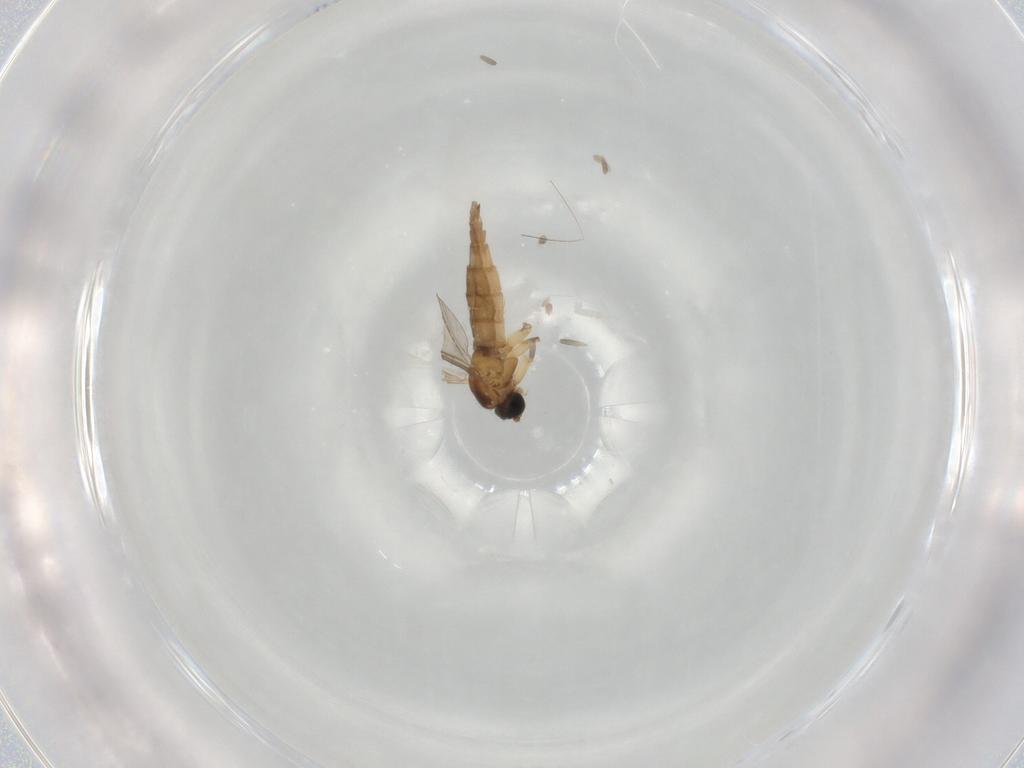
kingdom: Animalia
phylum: Arthropoda
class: Insecta
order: Diptera
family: Sciaridae
